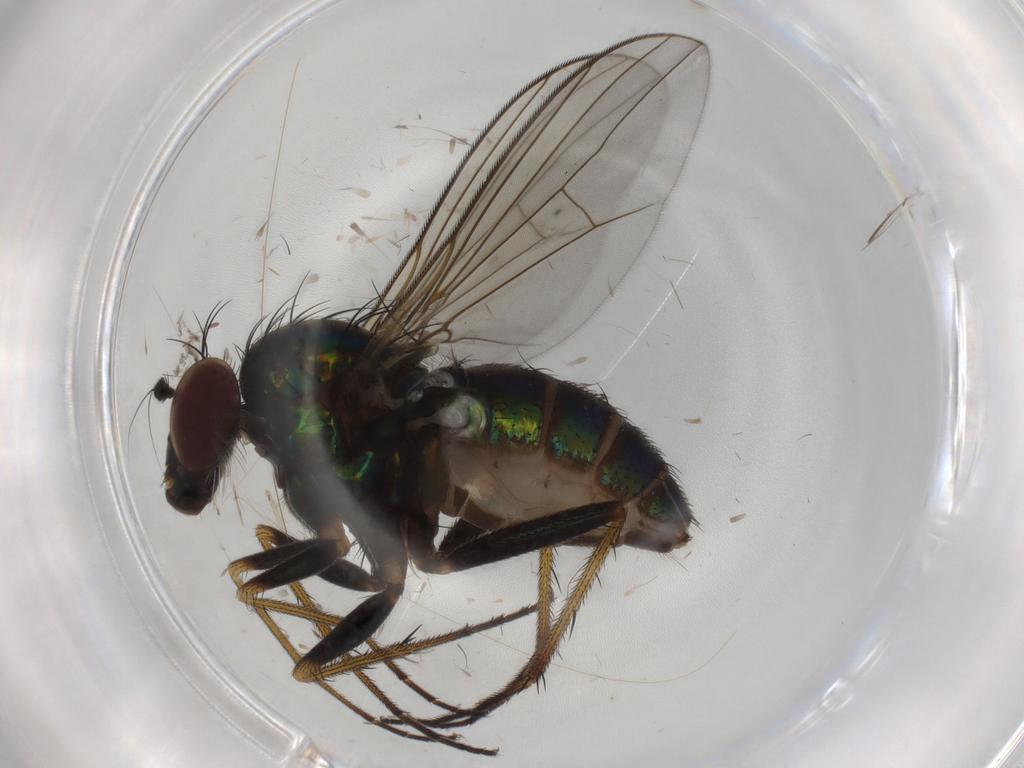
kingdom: Animalia
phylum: Arthropoda
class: Insecta
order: Diptera
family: Dolichopodidae
